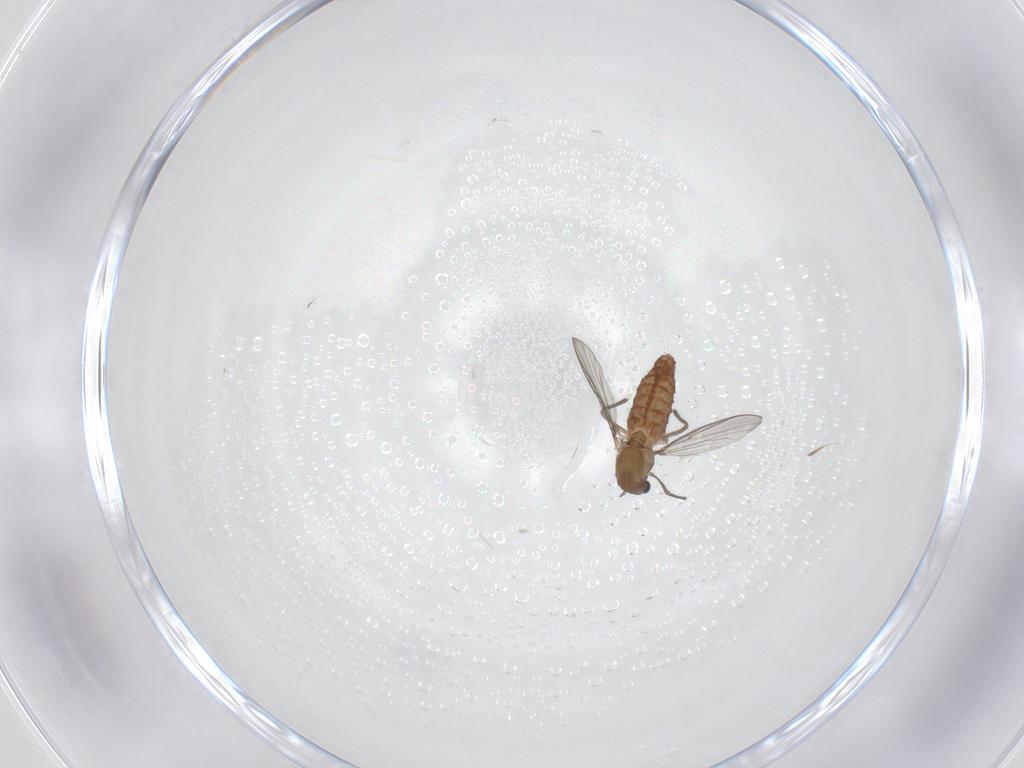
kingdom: Animalia
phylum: Arthropoda
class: Insecta
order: Diptera
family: Chironomidae
